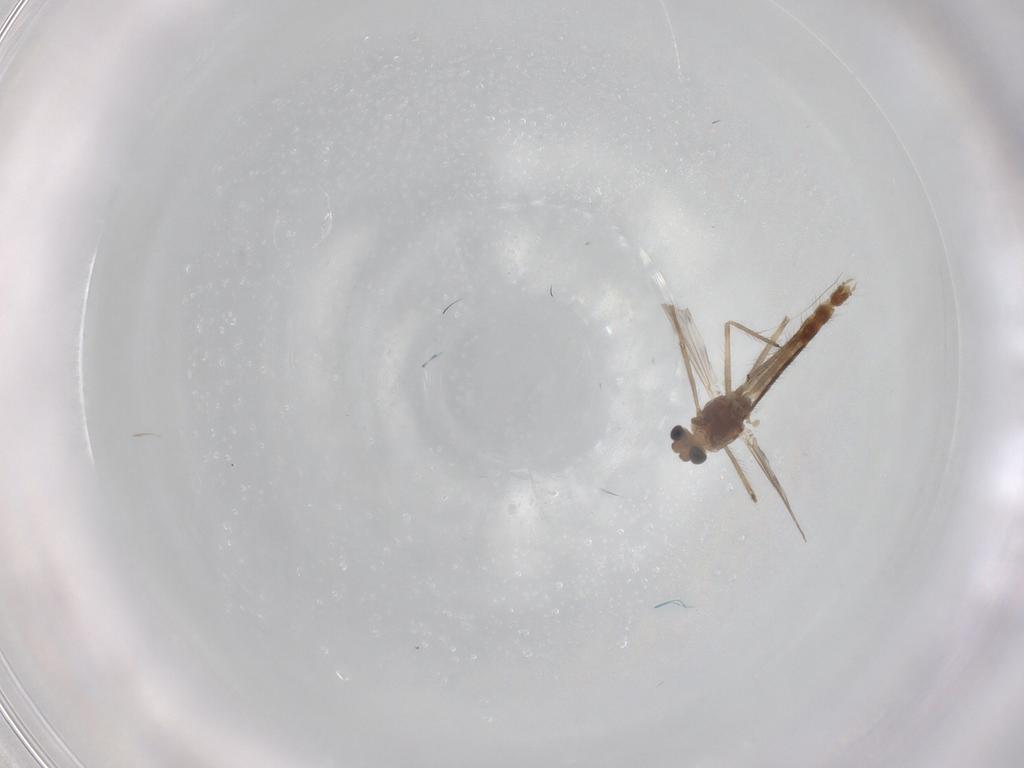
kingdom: Animalia
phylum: Arthropoda
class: Insecta
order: Diptera
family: Chironomidae
